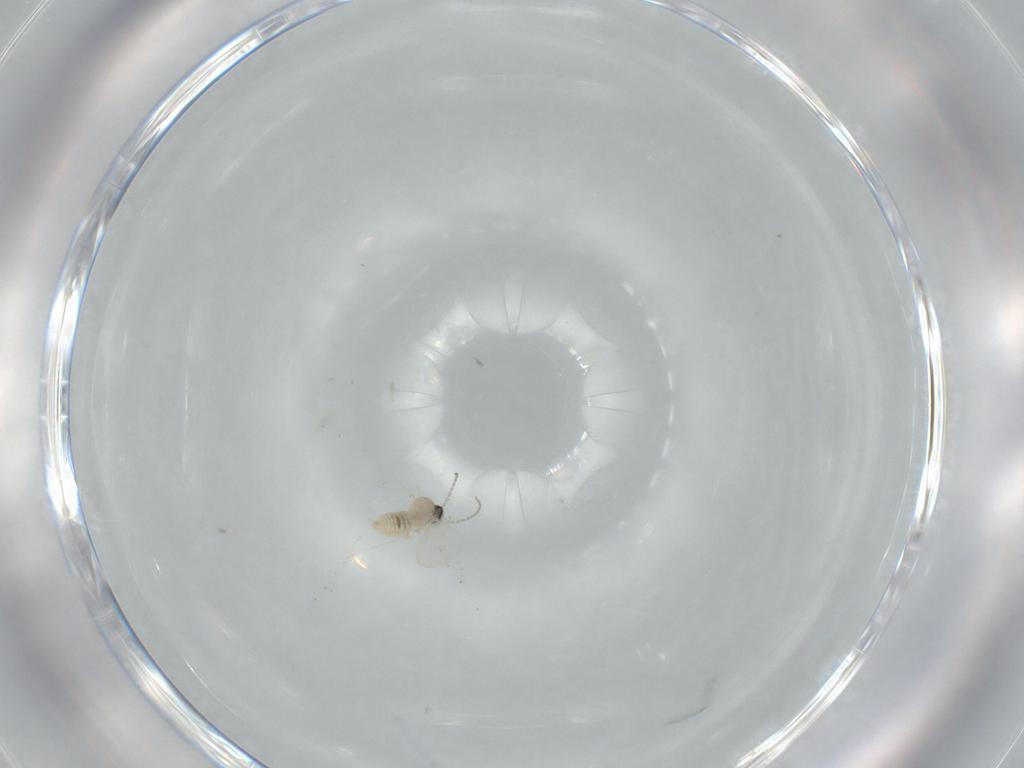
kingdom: Animalia
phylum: Arthropoda
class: Insecta
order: Diptera
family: Cecidomyiidae
